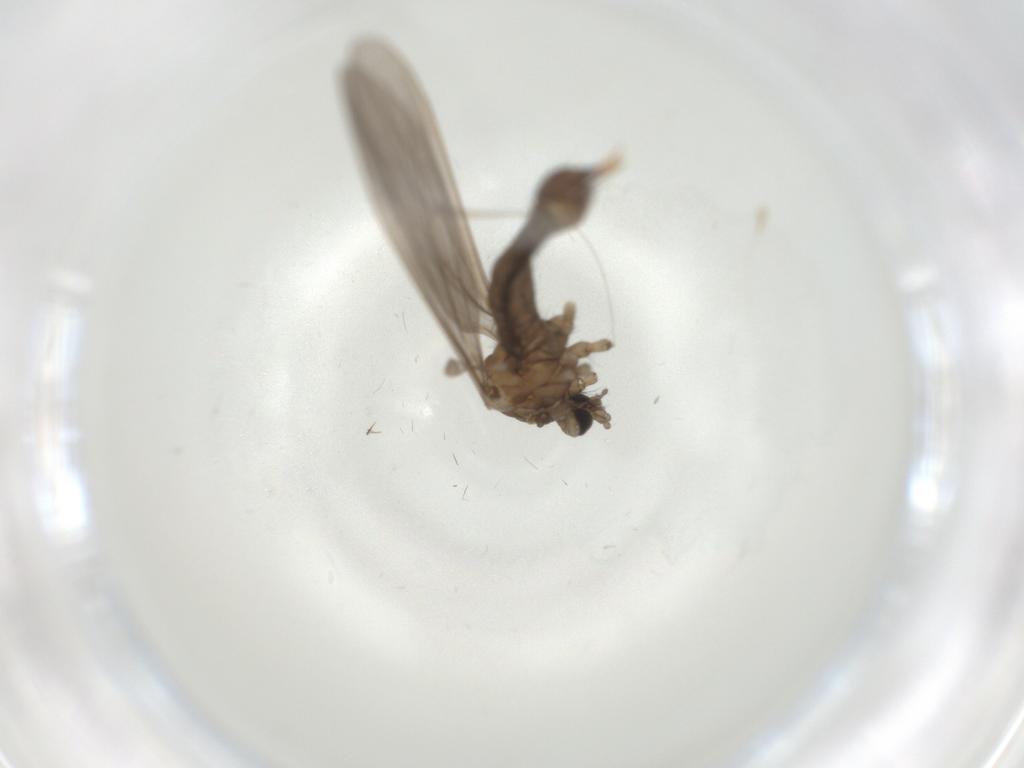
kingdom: Animalia
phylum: Arthropoda
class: Insecta
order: Diptera
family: Limoniidae
